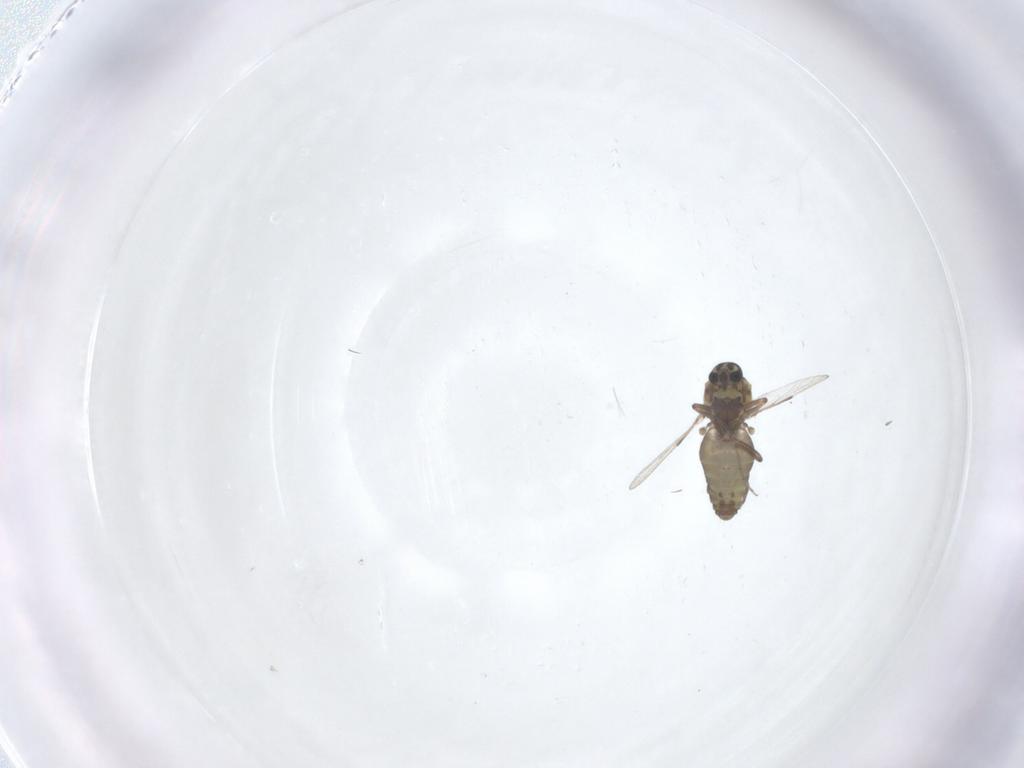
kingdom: Animalia
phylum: Arthropoda
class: Insecta
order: Diptera
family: Ceratopogonidae
